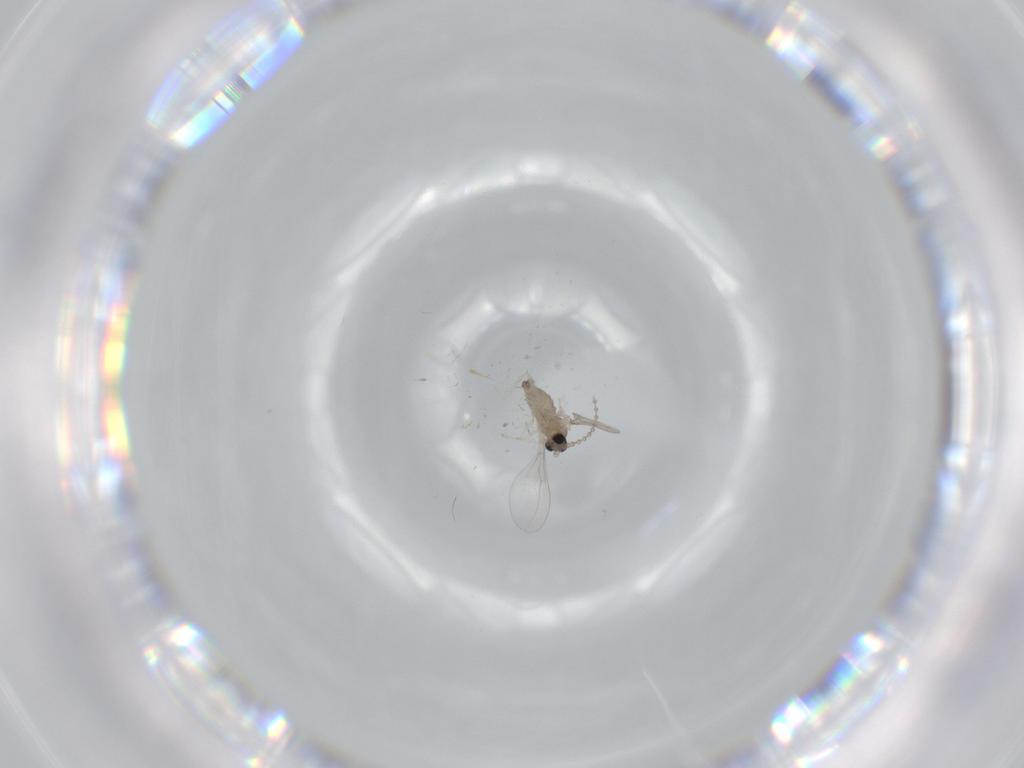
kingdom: Animalia
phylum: Arthropoda
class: Insecta
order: Diptera
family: Cecidomyiidae
